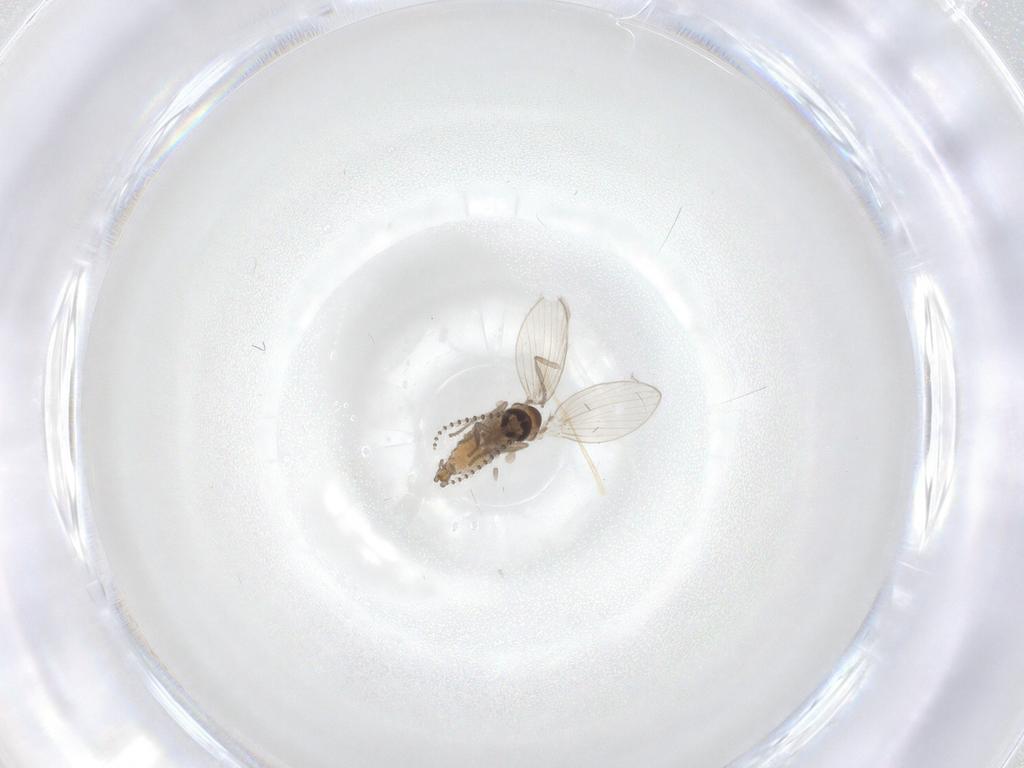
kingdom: Animalia
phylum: Arthropoda
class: Insecta
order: Diptera
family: Psychodidae
